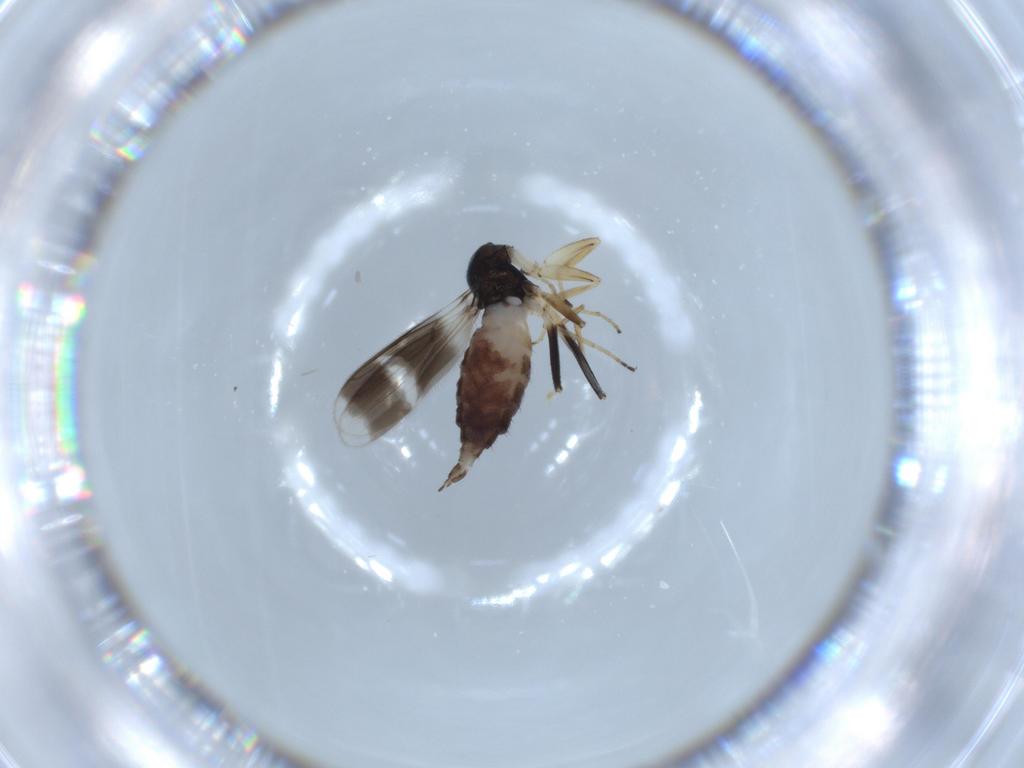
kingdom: Animalia
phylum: Arthropoda
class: Insecta
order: Diptera
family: Hybotidae
